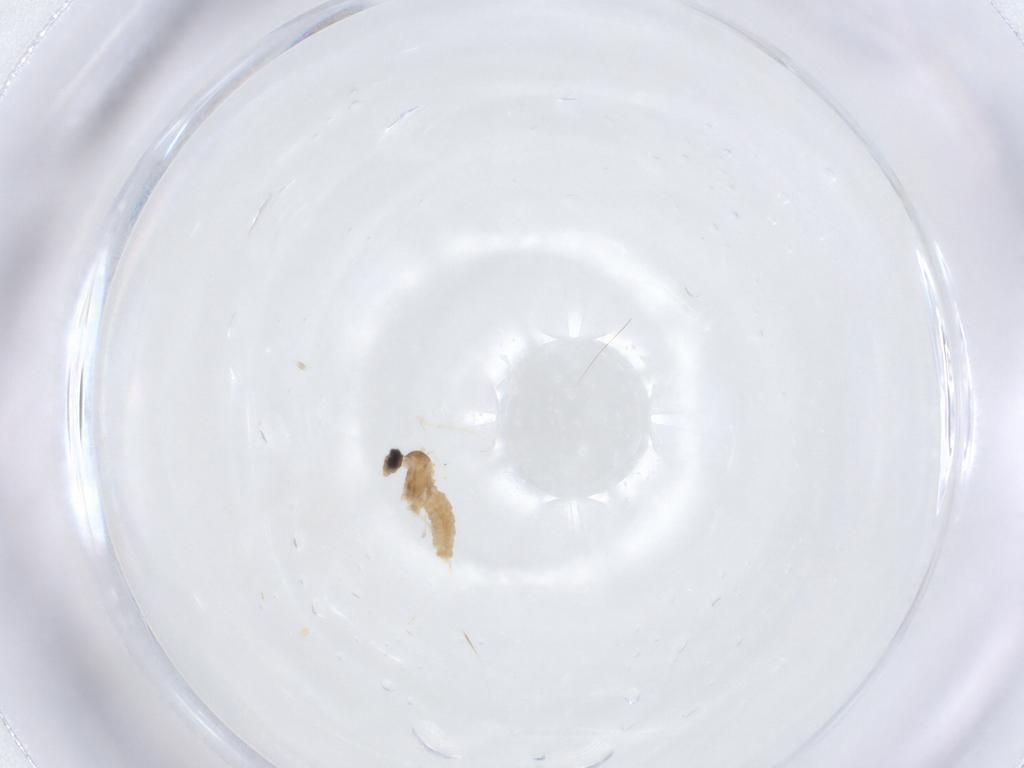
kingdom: Animalia
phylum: Arthropoda
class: Insecta
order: Diptera
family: Cecidomyiidae
